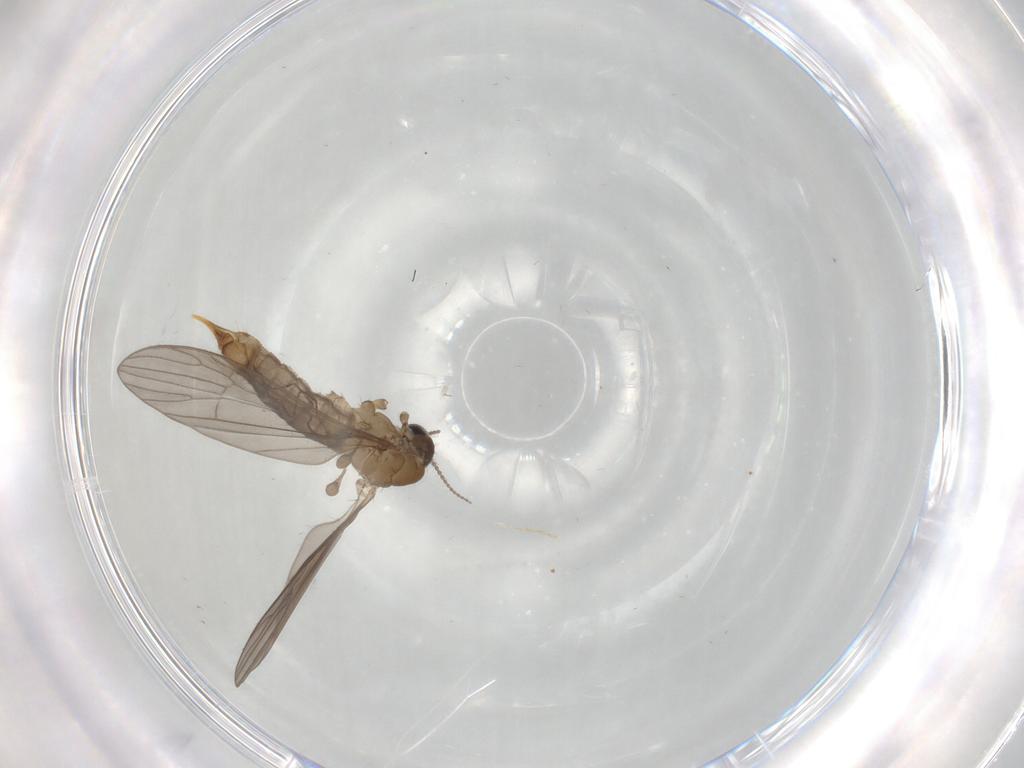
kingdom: Animalia
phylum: Arthropoda
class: Insecta
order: Diptera
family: Limoniidae
